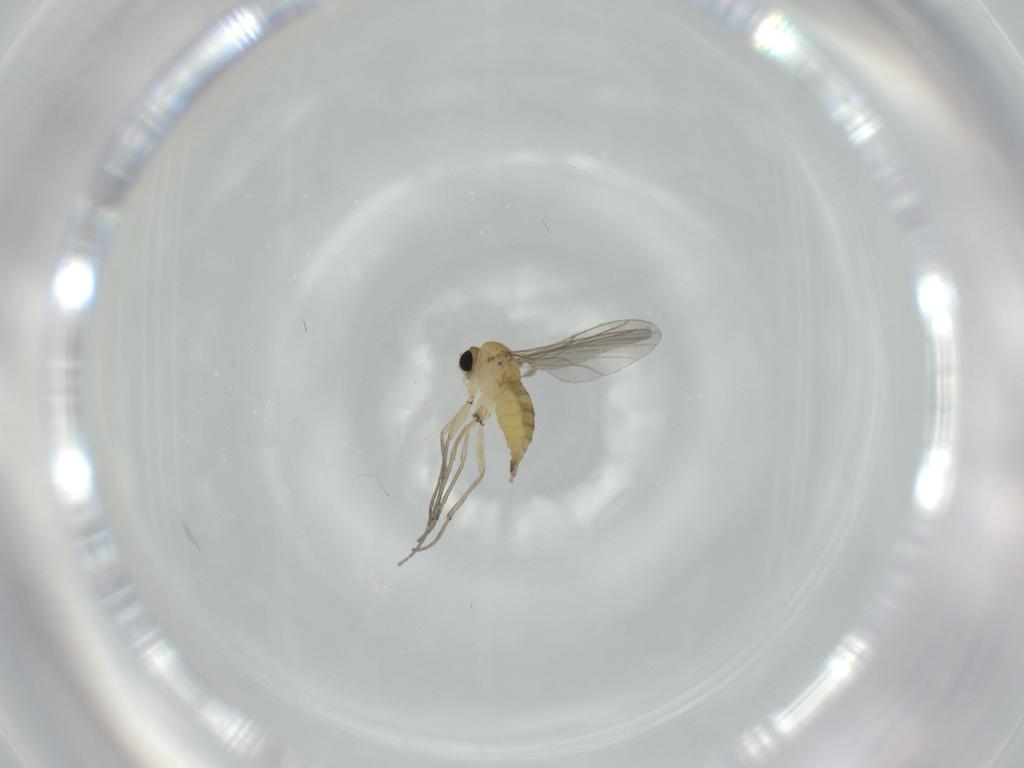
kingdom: Animalia
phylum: Arthropoda
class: Insecta
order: Diptera
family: Sciaridae
